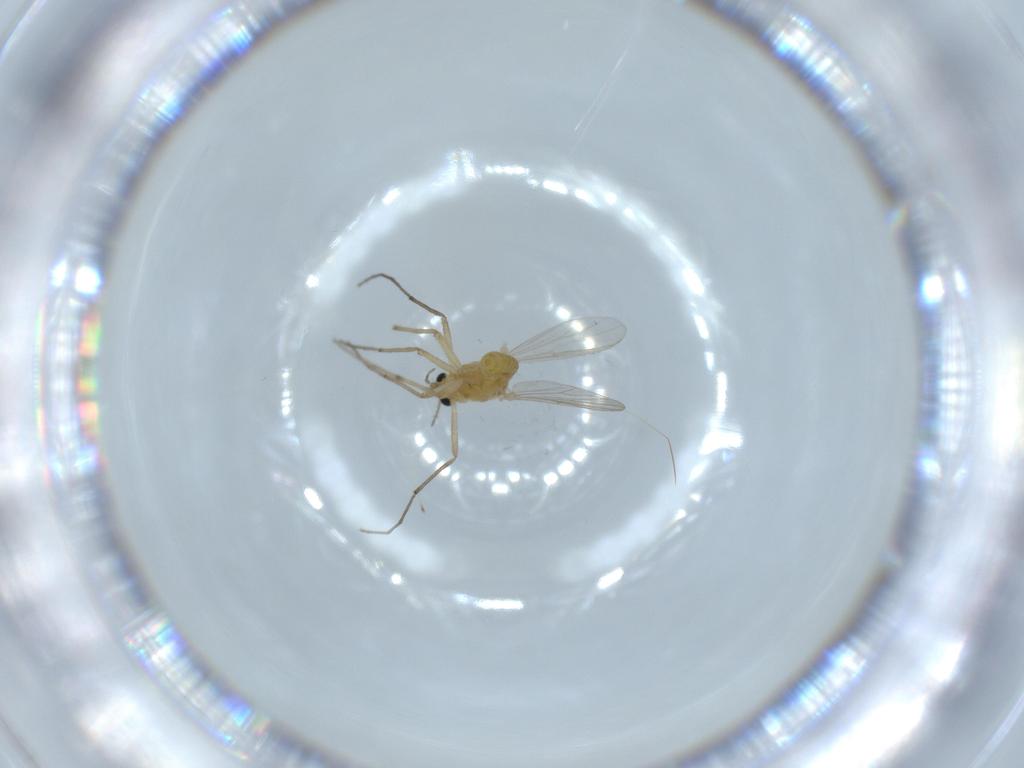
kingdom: Animalia
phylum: Arthropoda
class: Insecta
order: Diptera
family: Chironomidae
